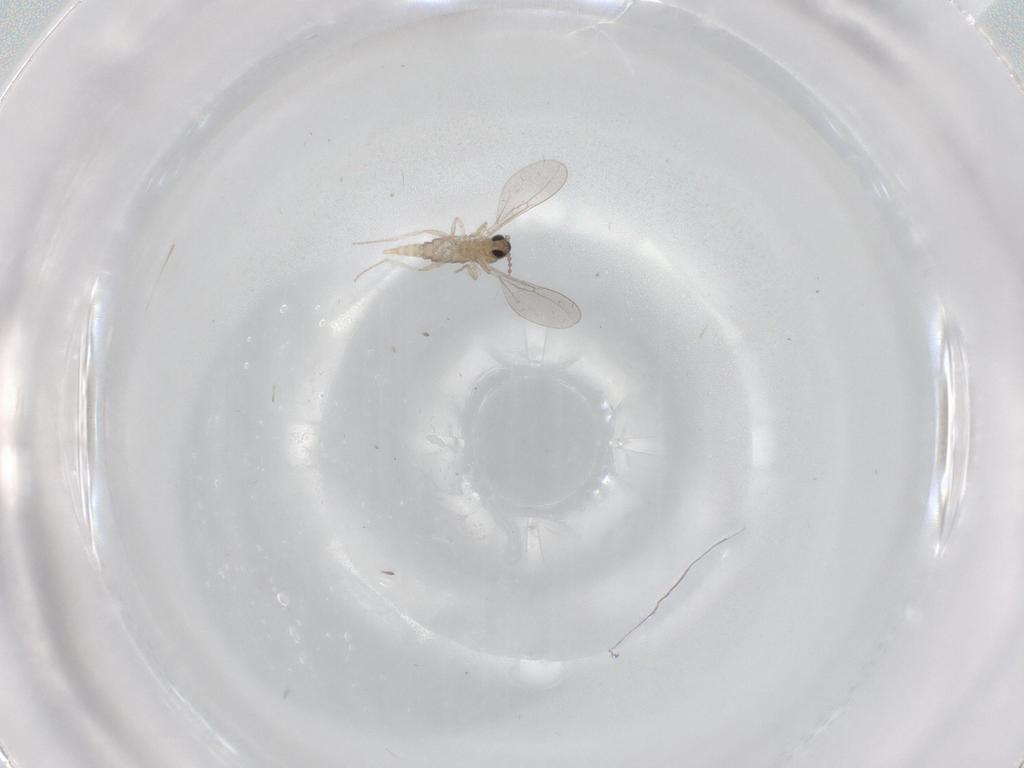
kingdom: Animalia
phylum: Arthropoda
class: Insecta
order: Diptera
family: Cecidomyiidae
